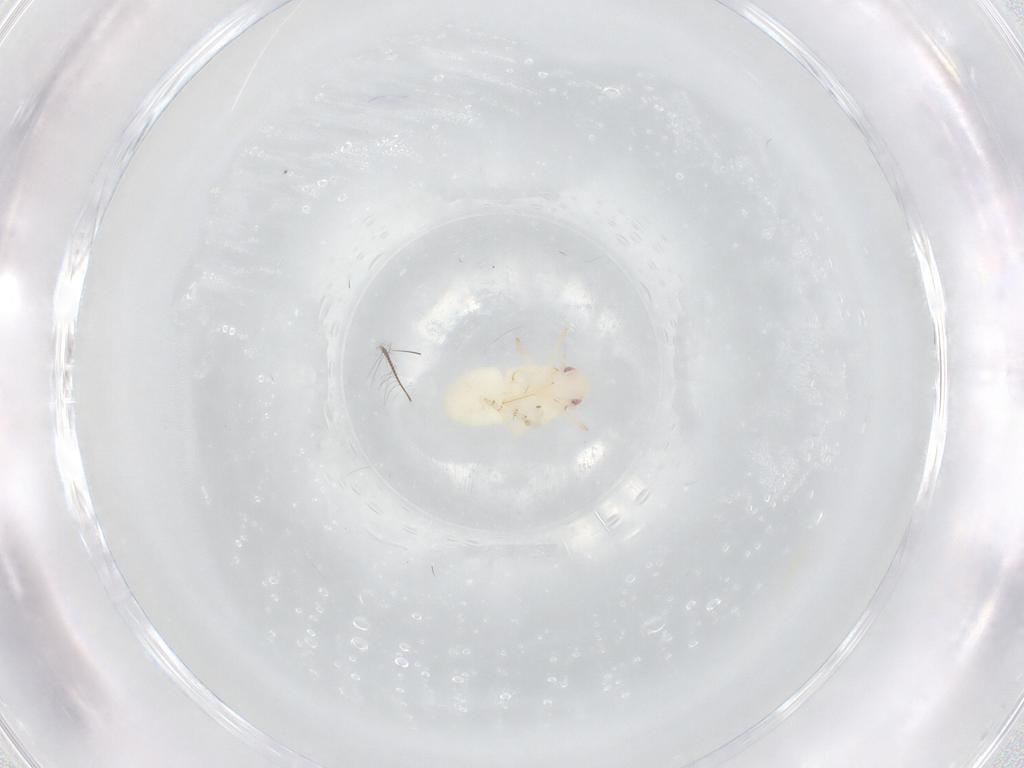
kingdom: Animalia
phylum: Arthropoda
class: Insecta
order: Hemiptera
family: Flatidae
